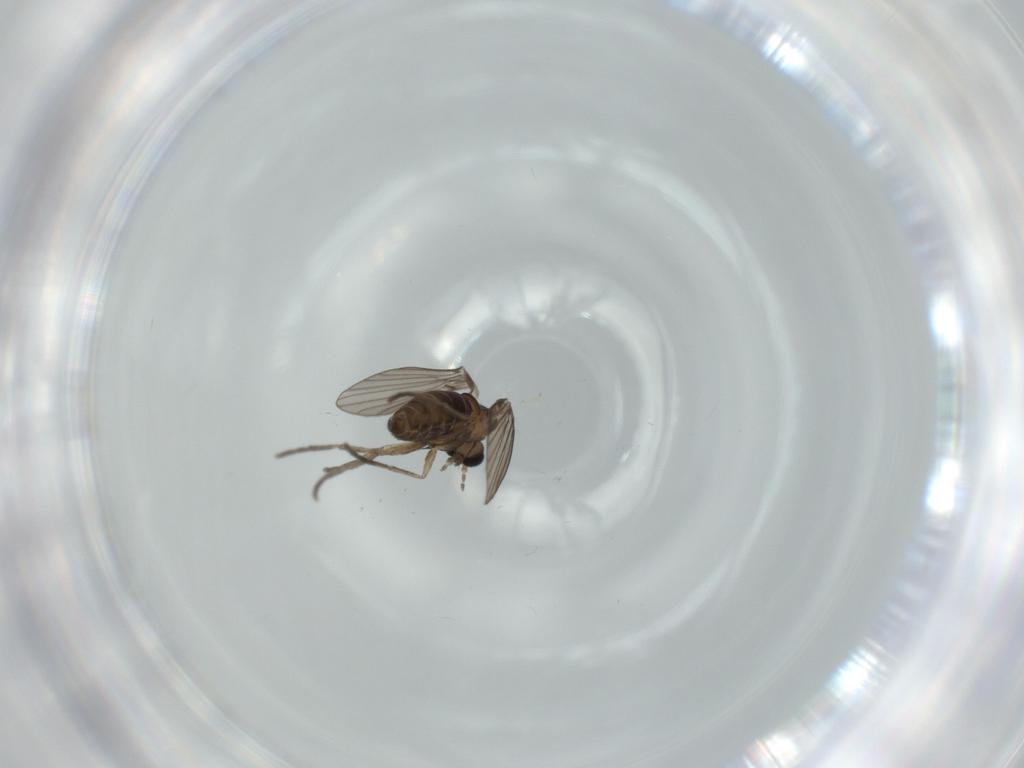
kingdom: Animalia
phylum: Arthropoda
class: Insecta
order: Diptera
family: Psychodidae
